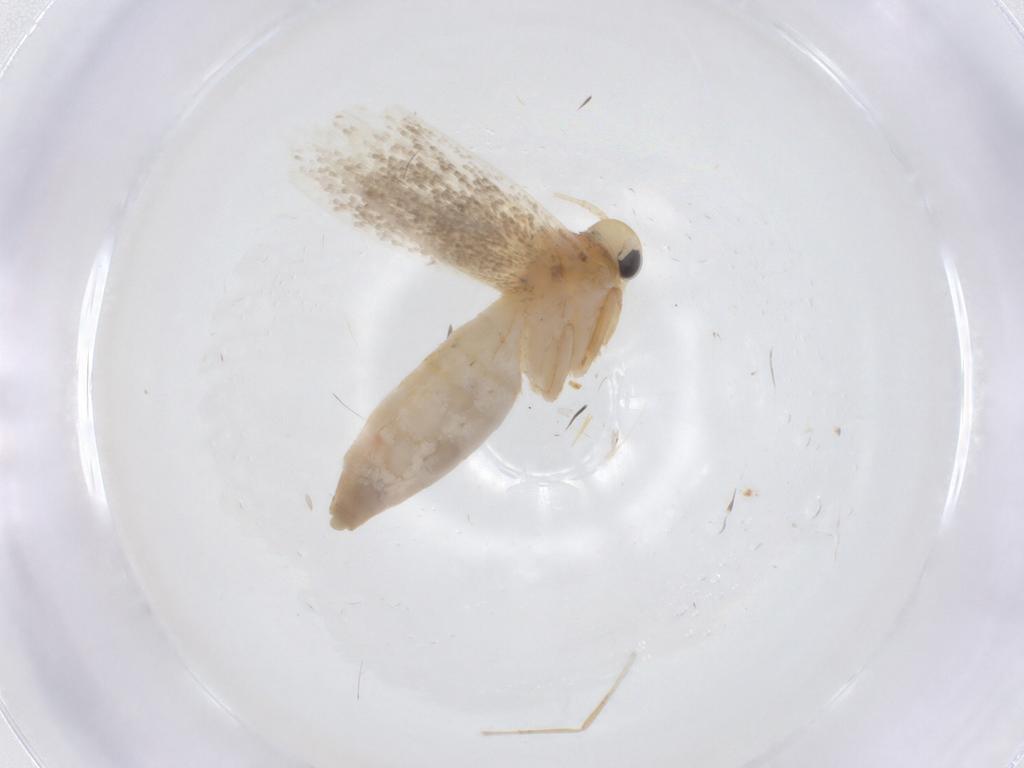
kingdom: Animalia
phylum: Arthropoda
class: Insecta
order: Lepidoptera
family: Erebidae
